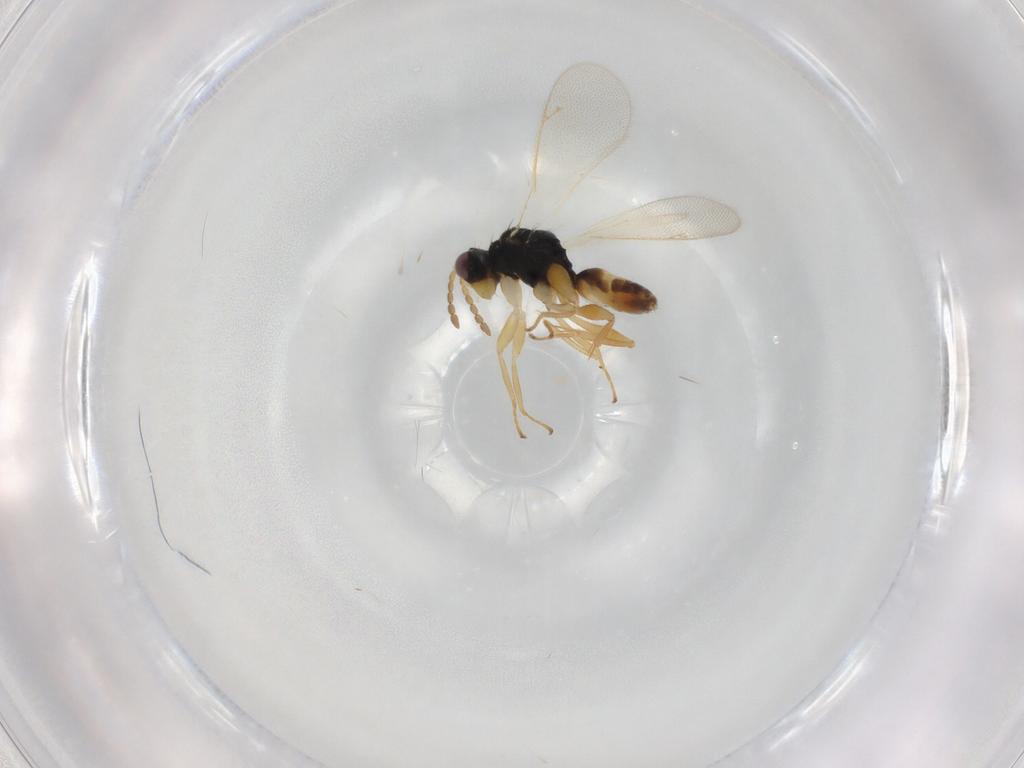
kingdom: Animalia
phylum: Arthropoda
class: Insecta
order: Hymenoptera
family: Eulophidae
